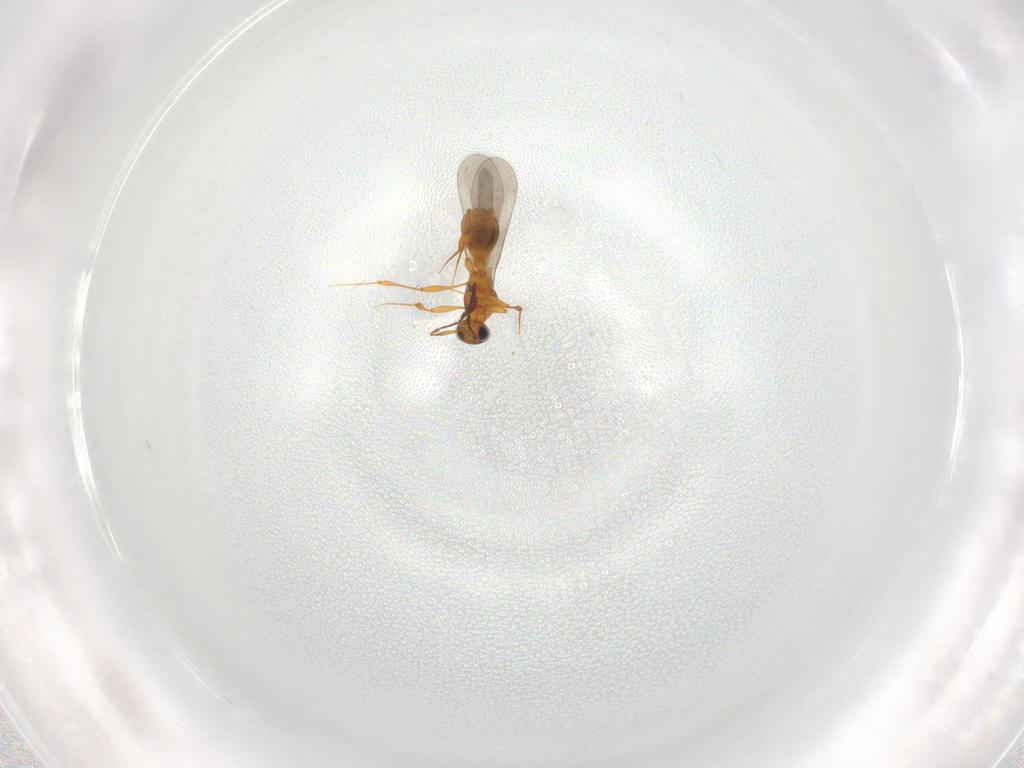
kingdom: Animalia
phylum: Arthropoda
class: Insecta
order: Hymenoptera
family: Platygastridae
